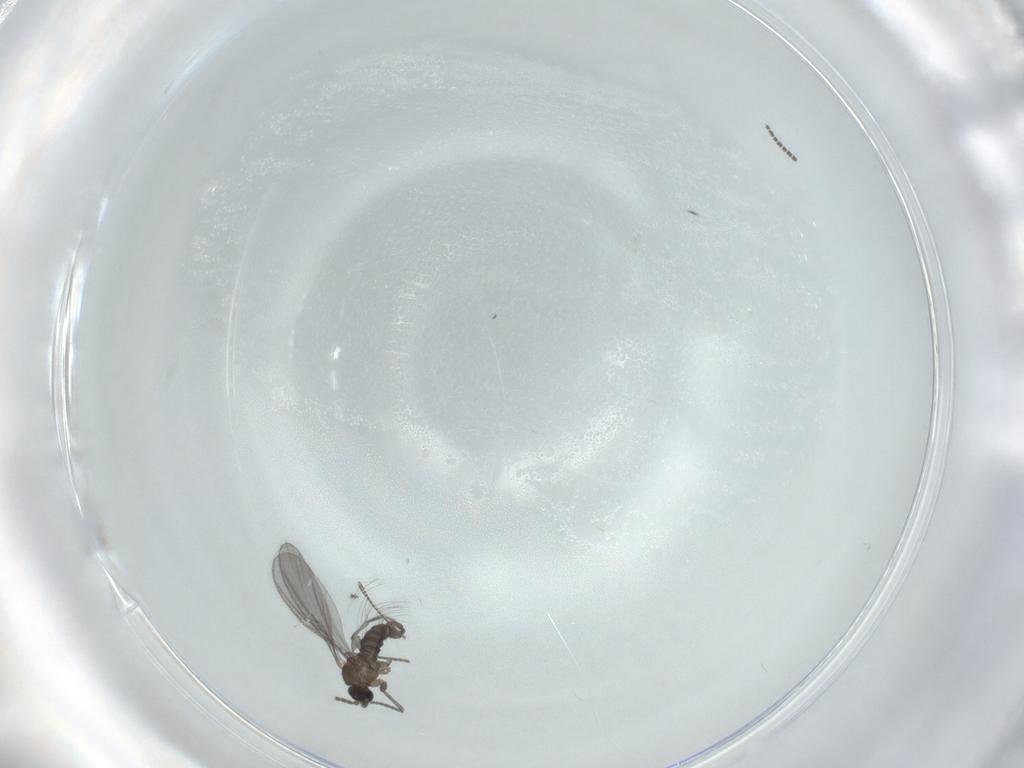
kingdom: Animalia
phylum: Arthropoda
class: Insecta
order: Diptera
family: Sciaridae
